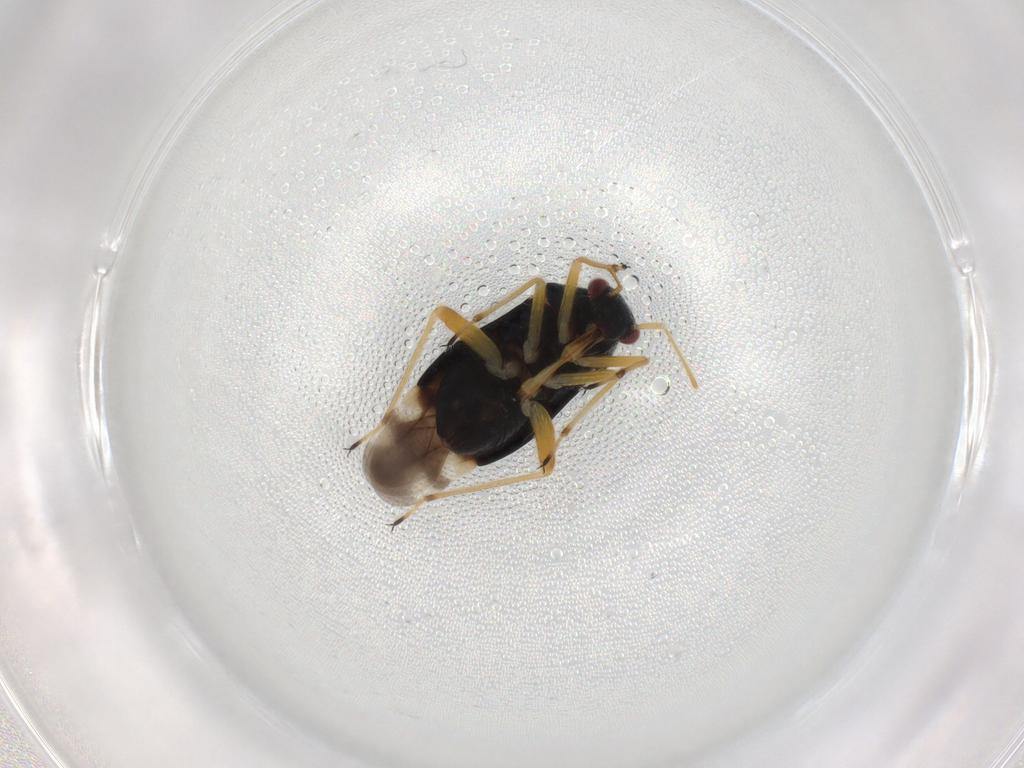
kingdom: Animalia
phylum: Arthropoda
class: Insecta
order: Hemiptera
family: Miridae
